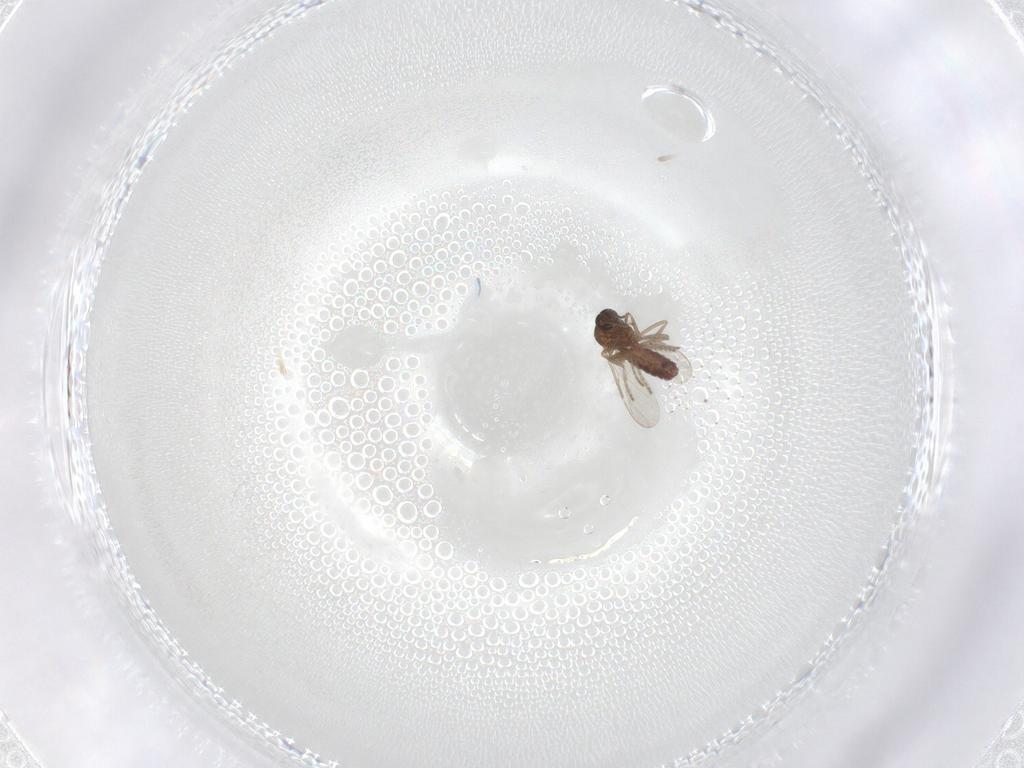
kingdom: Animalia
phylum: Arthropoda
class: Insecta
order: Diptera
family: Ceratopogonidae
